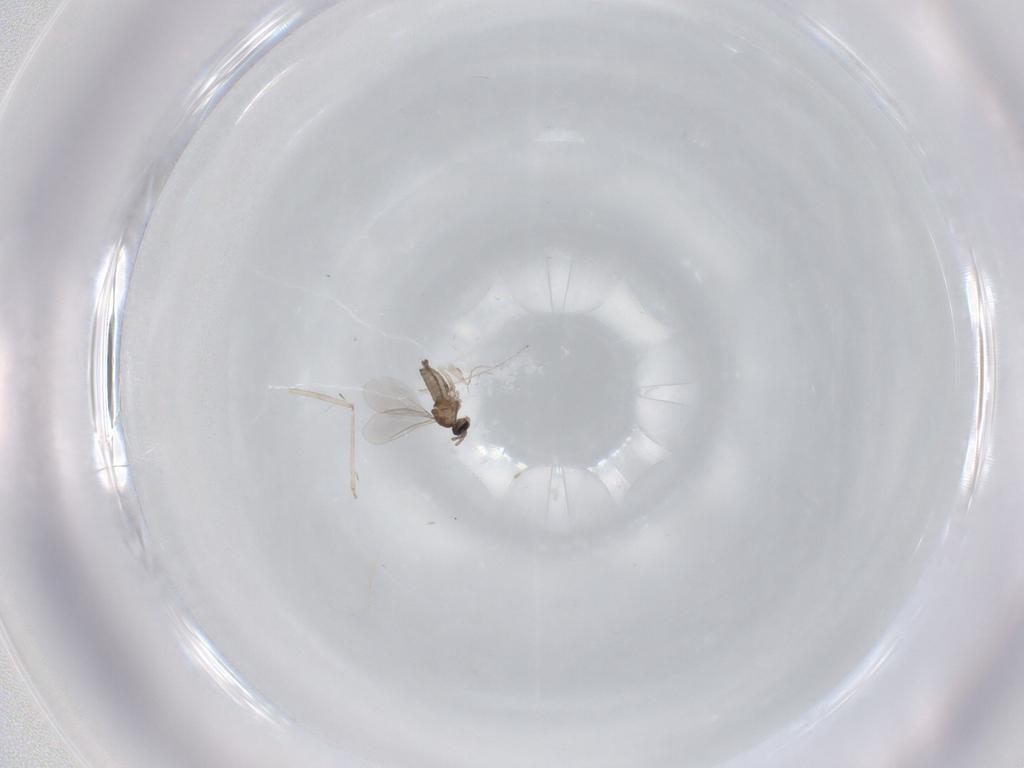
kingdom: Animalia
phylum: Arthropoda
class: Insecta
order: Diptera
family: Cecidomyiidae
